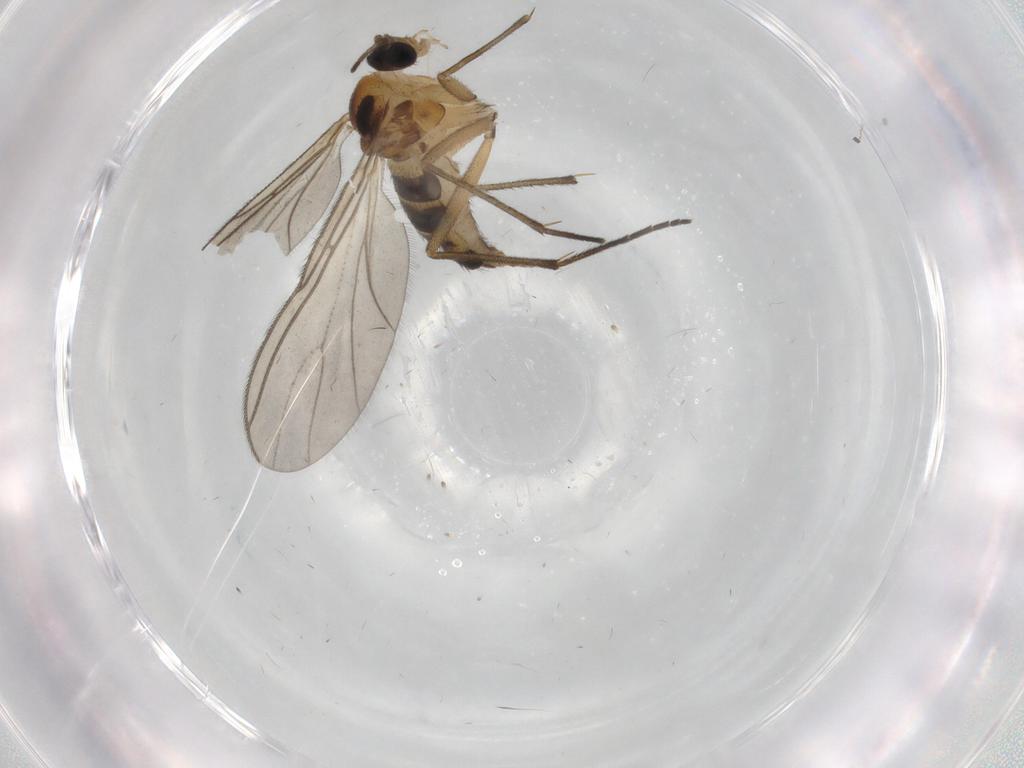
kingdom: Animalia
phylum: Arthropoda
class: Insecta
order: Diptera
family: Sciaridae
